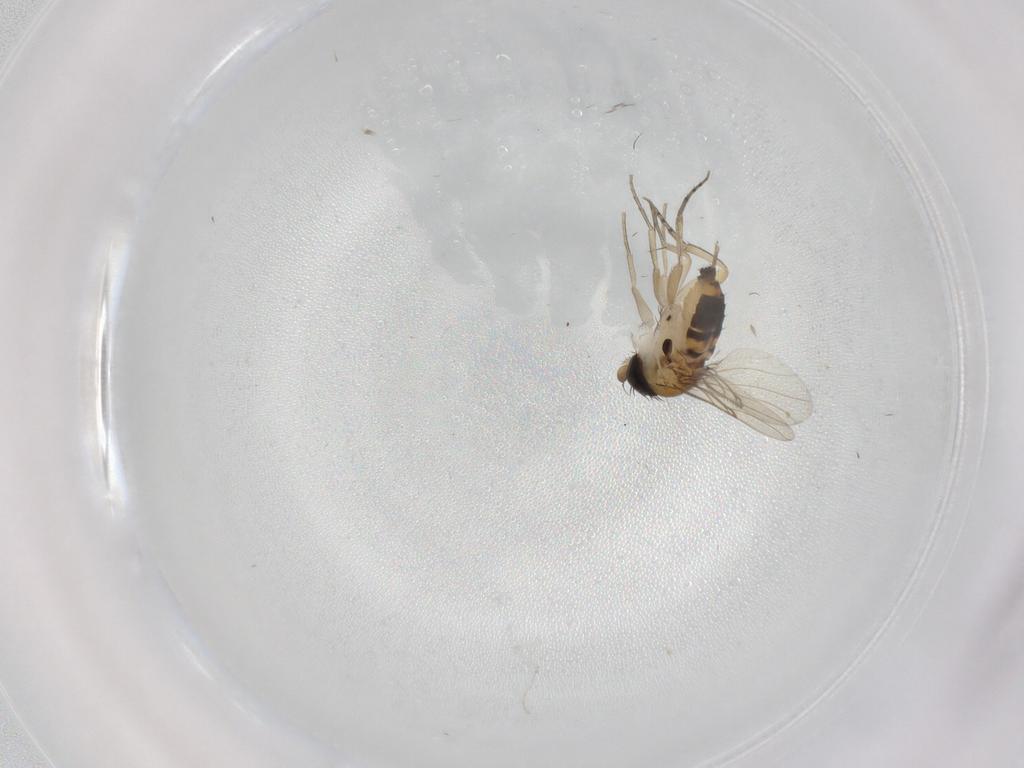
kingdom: Animalia
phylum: Arthropoda
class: Insecta
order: Diptera
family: Phoridae
